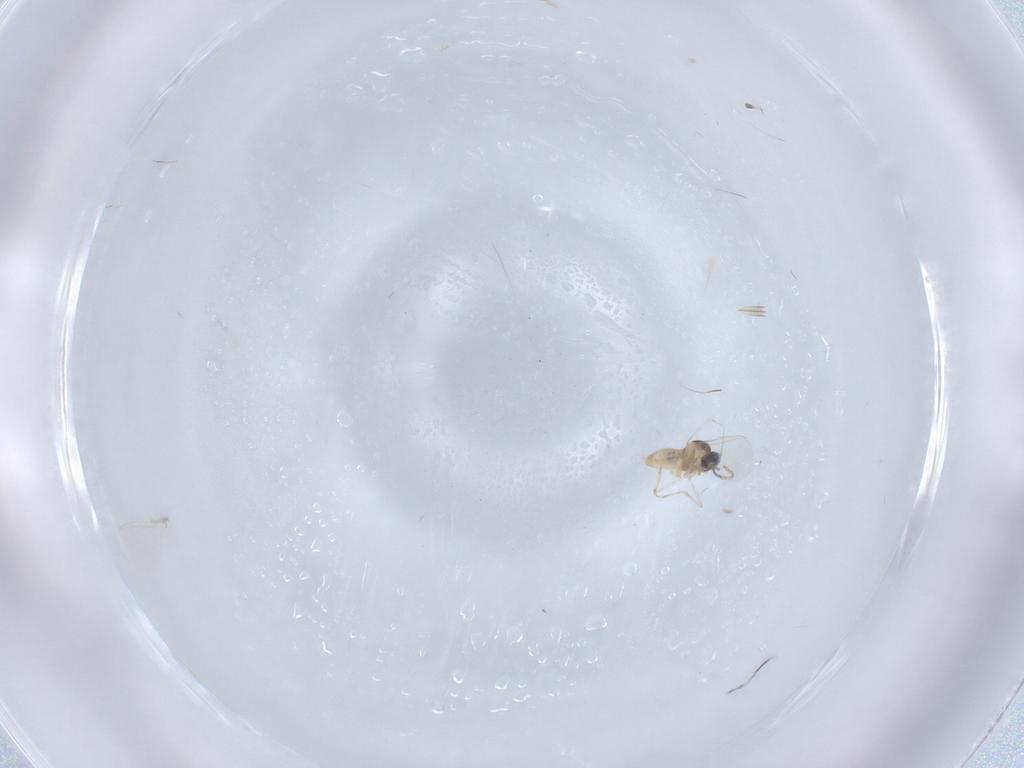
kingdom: Animalia
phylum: Arthropoda
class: Insecta
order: Diptera
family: Cecidomyiidae
